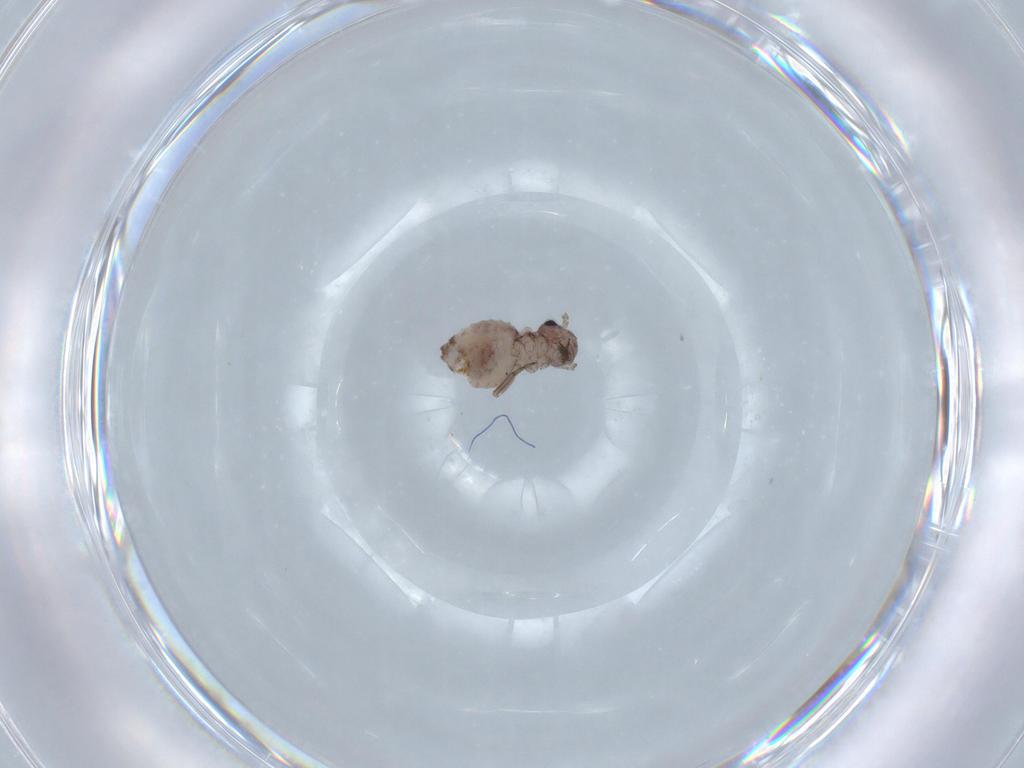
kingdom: Animalia
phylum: Arthropoda
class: Insecta
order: Psocodea
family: Psocidae
